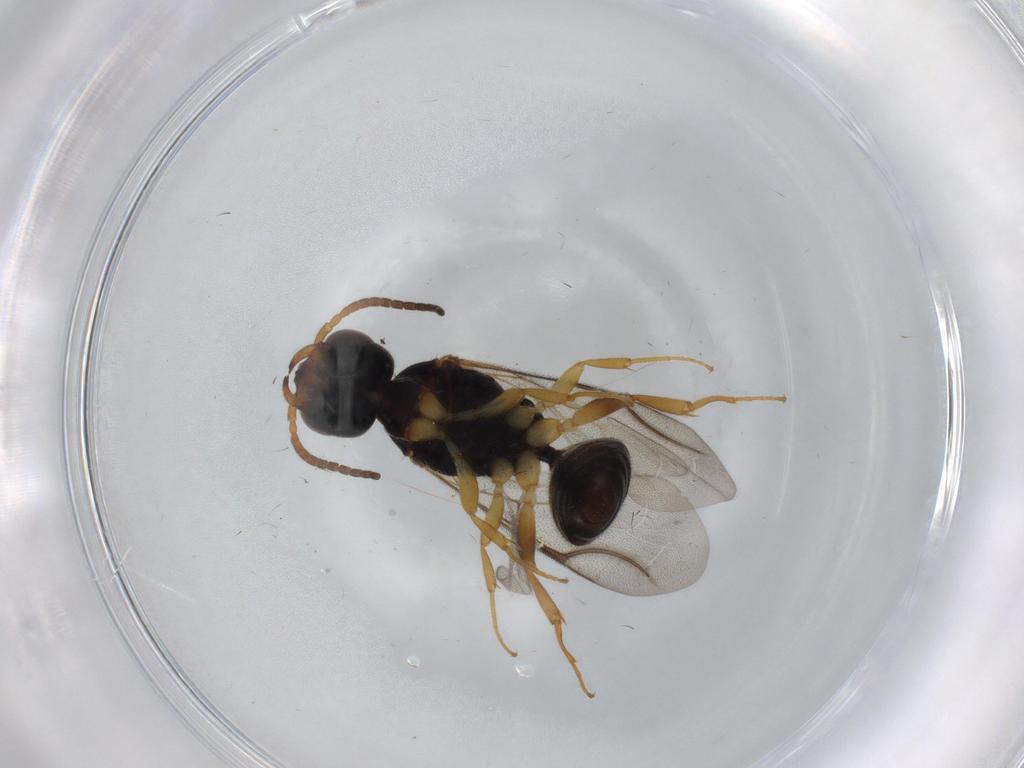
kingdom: Animalia
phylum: Arthropoda
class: Insecta
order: Hymenoptera
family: Bethylidae
